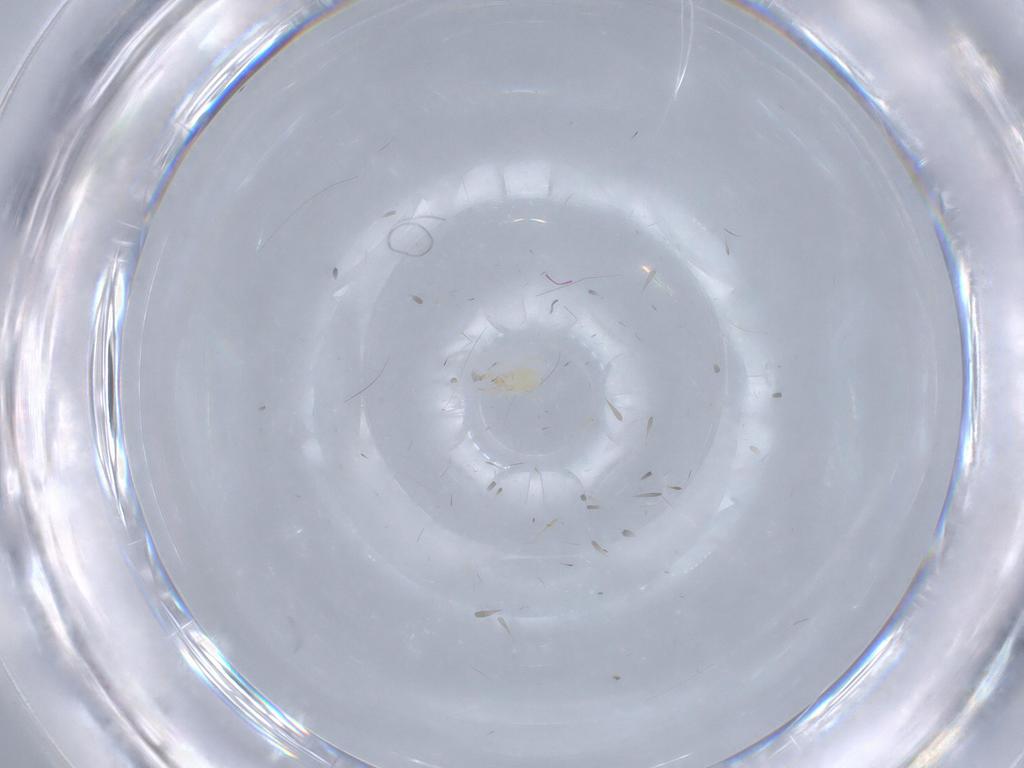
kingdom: Animalia
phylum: Arthropoda
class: Arachnida
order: Mesostigmata
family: Phytoseiidae
